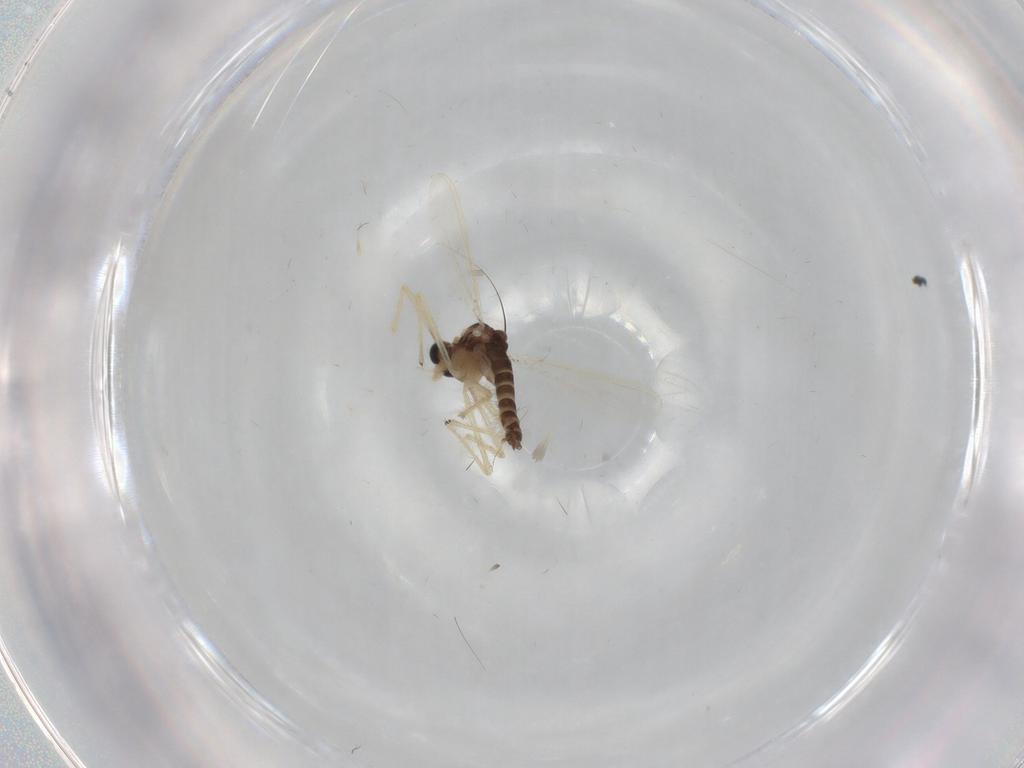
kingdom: Animalia
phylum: Arthropoda
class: Insecta
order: Diptera
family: Chironomidae
